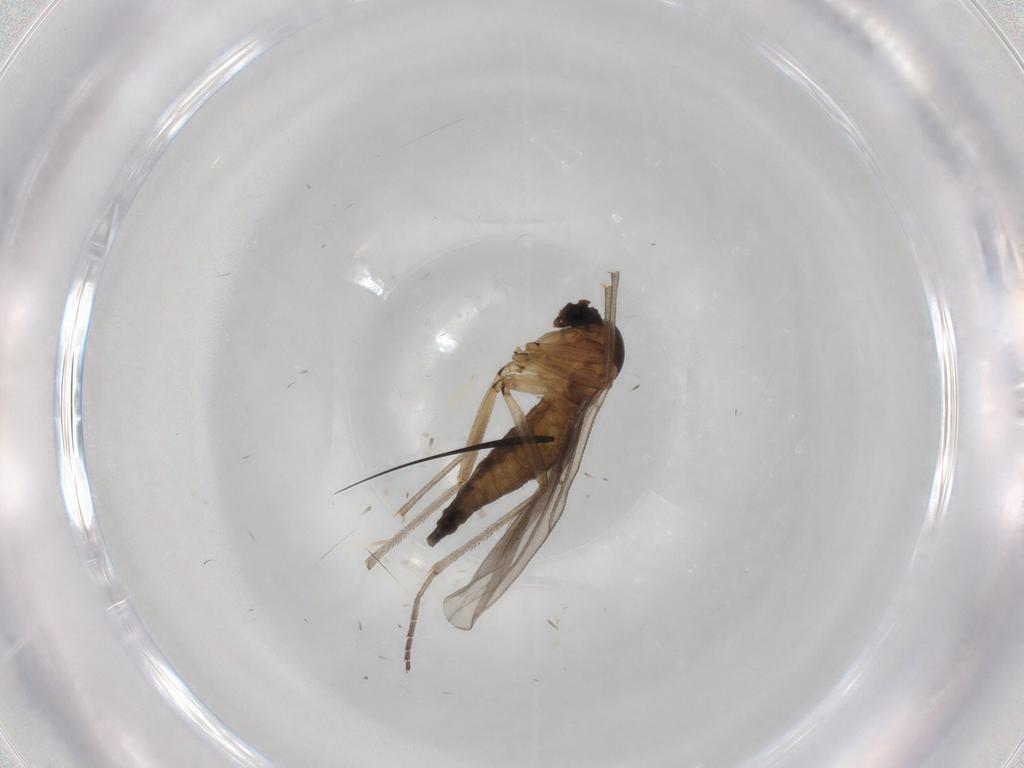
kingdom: Animalia
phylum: Arthropoda
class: Insecta
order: Diptera
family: Sciaridae
